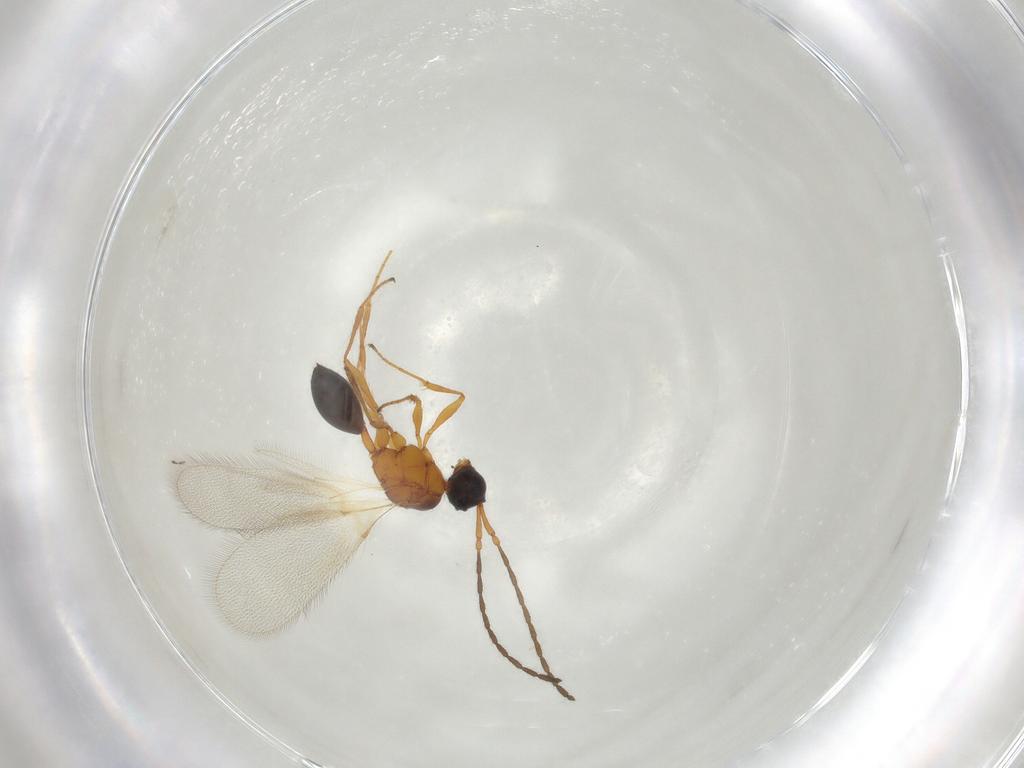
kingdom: Animalia
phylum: Arthropoda
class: Insecta
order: Hymenoptera
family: Diapriidae
